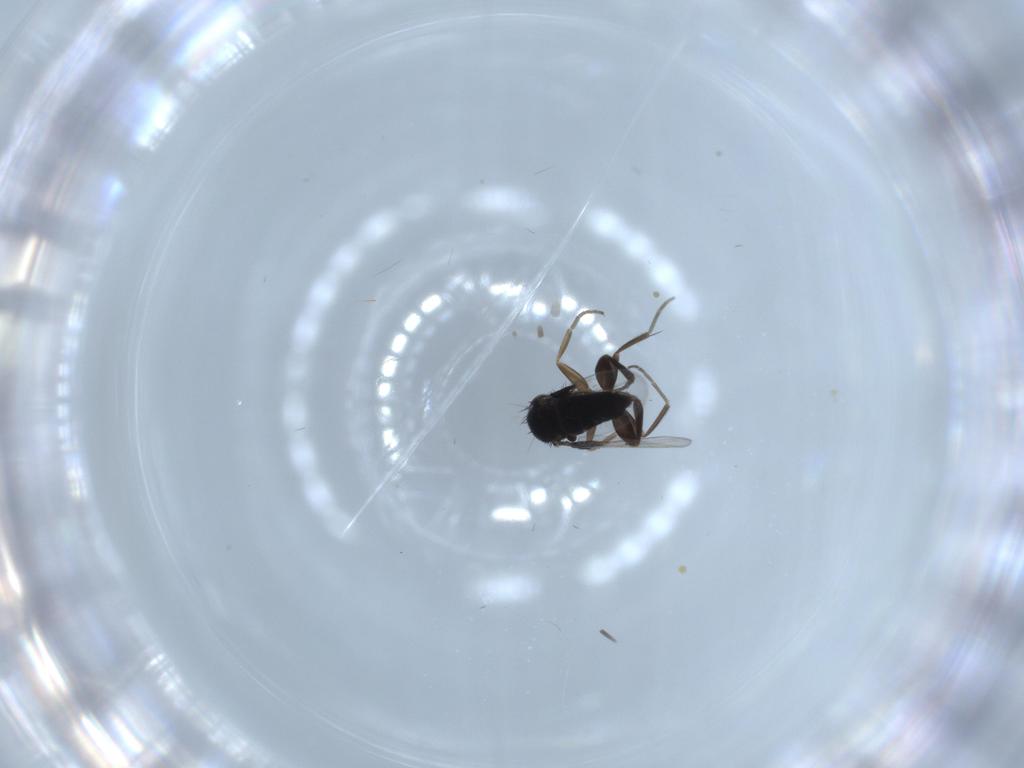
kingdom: Animalia
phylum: Arthropoda
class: Insecta
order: Diptera
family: Phoridae
